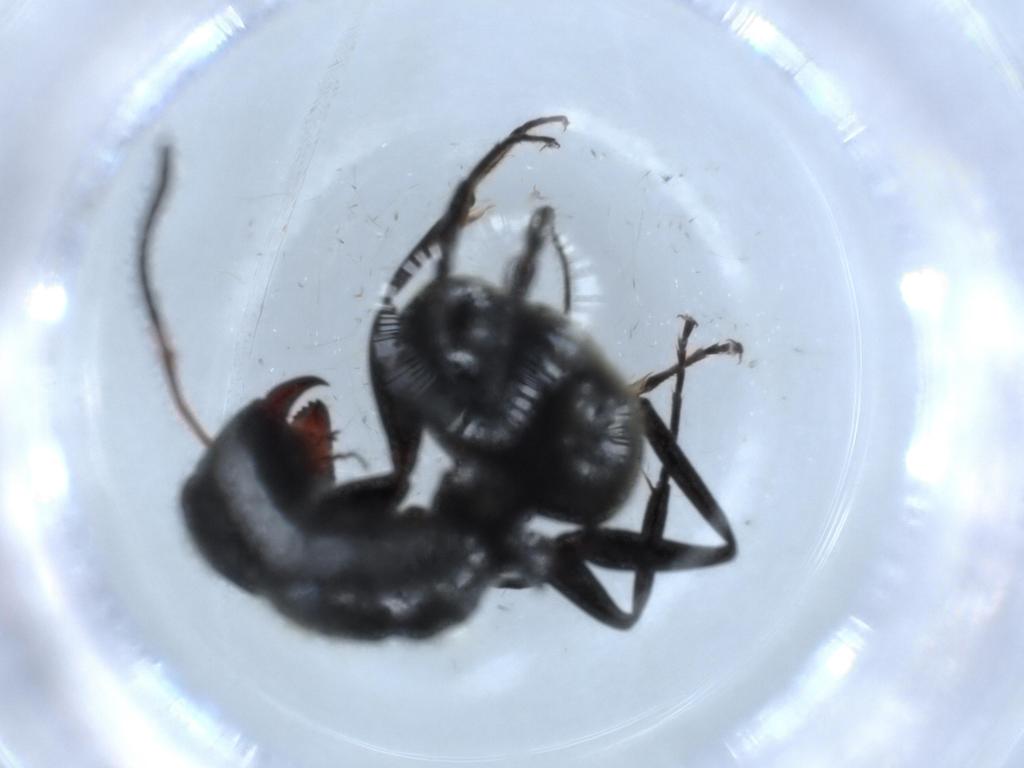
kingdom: Animalia
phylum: Arthropoda
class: Insecta
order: Hymenoptera
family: Formicidae
